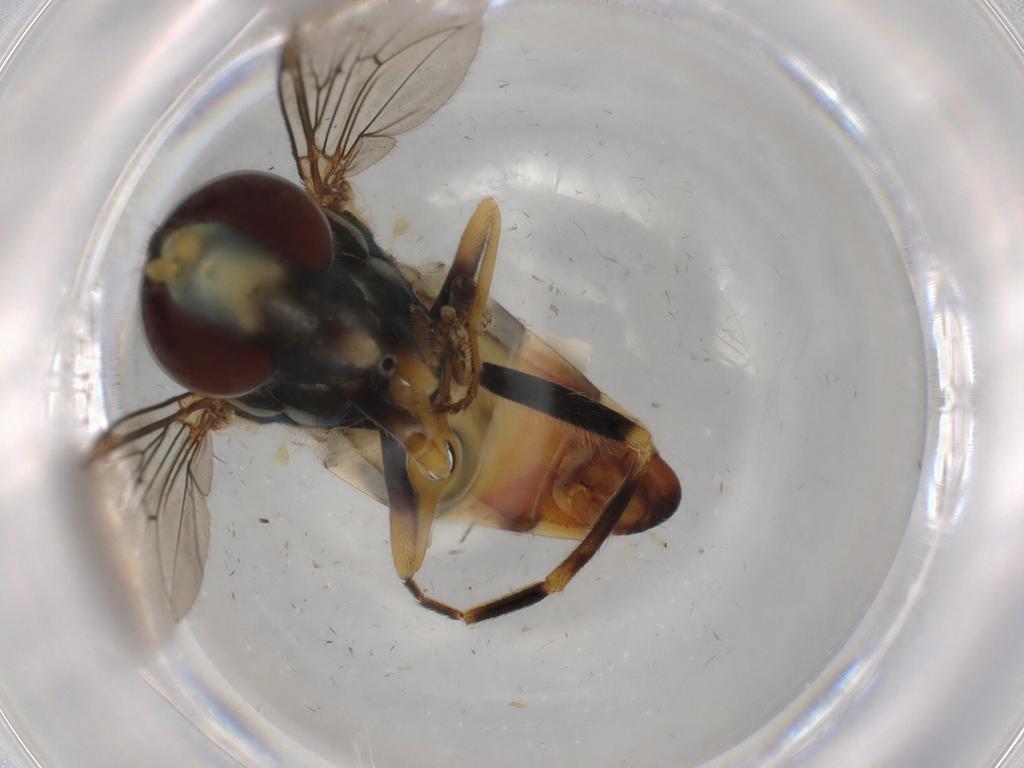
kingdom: Animalia
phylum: Arthropoda
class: Insecta
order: Diptera
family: Syrphidae
